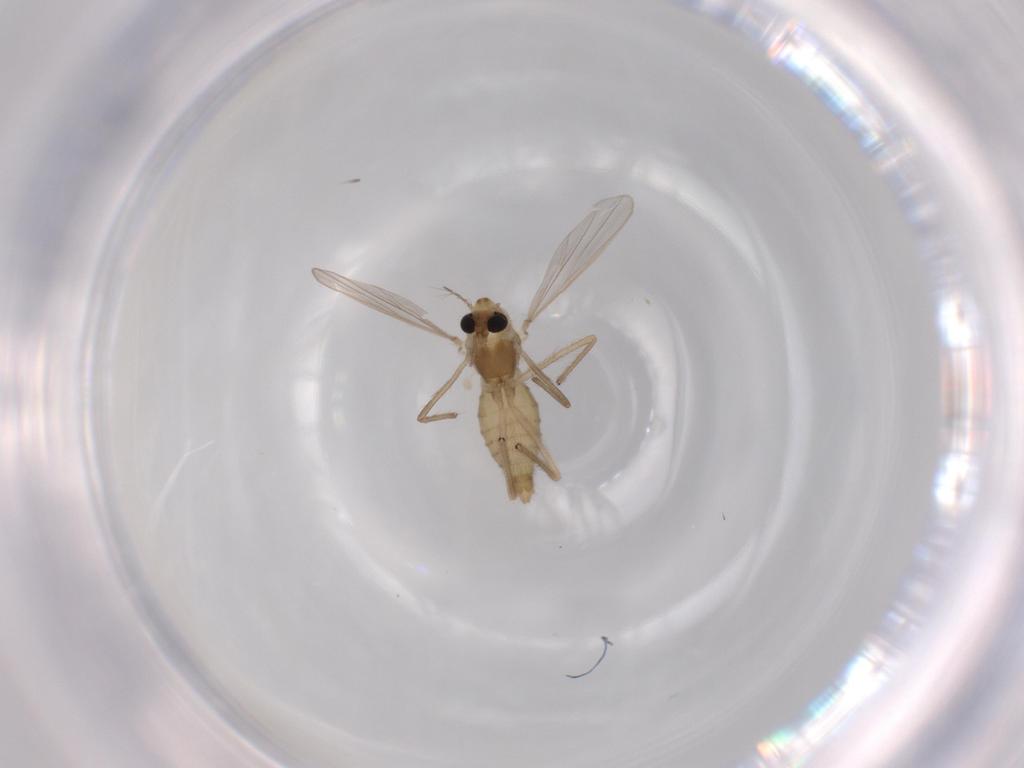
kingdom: Animalia
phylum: Arthropoda
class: Insecta
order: Diptera
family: Chironomidae
